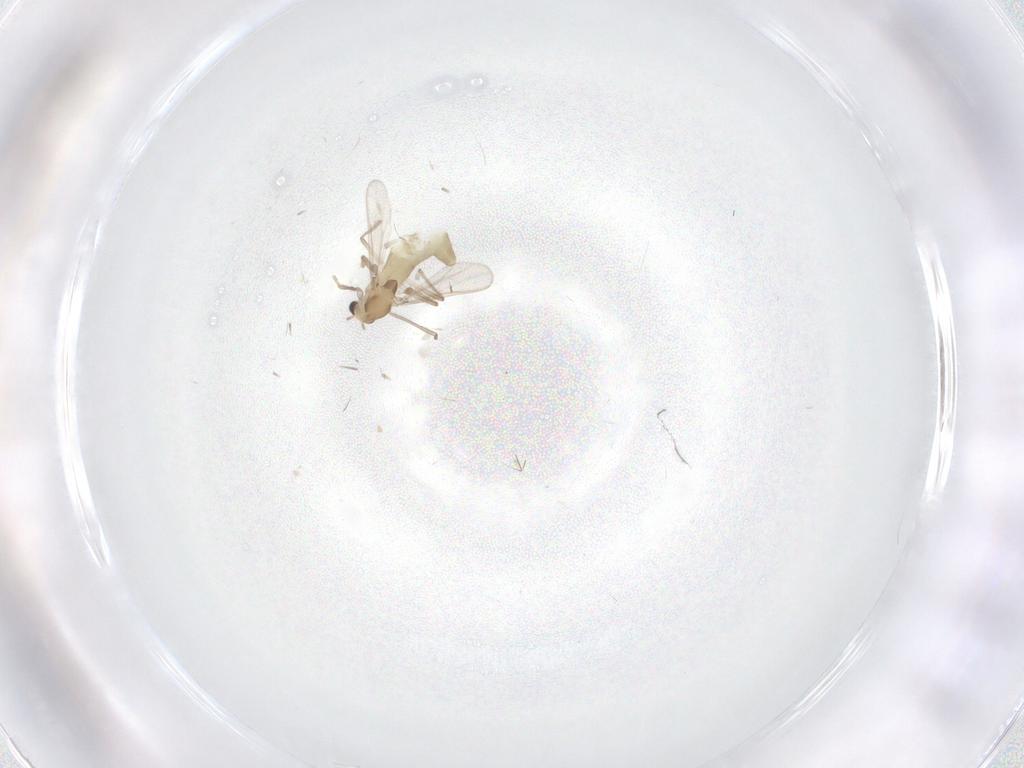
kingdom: Animalia
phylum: Arthropoda
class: Insecta
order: Diptera
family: Chironomidae
